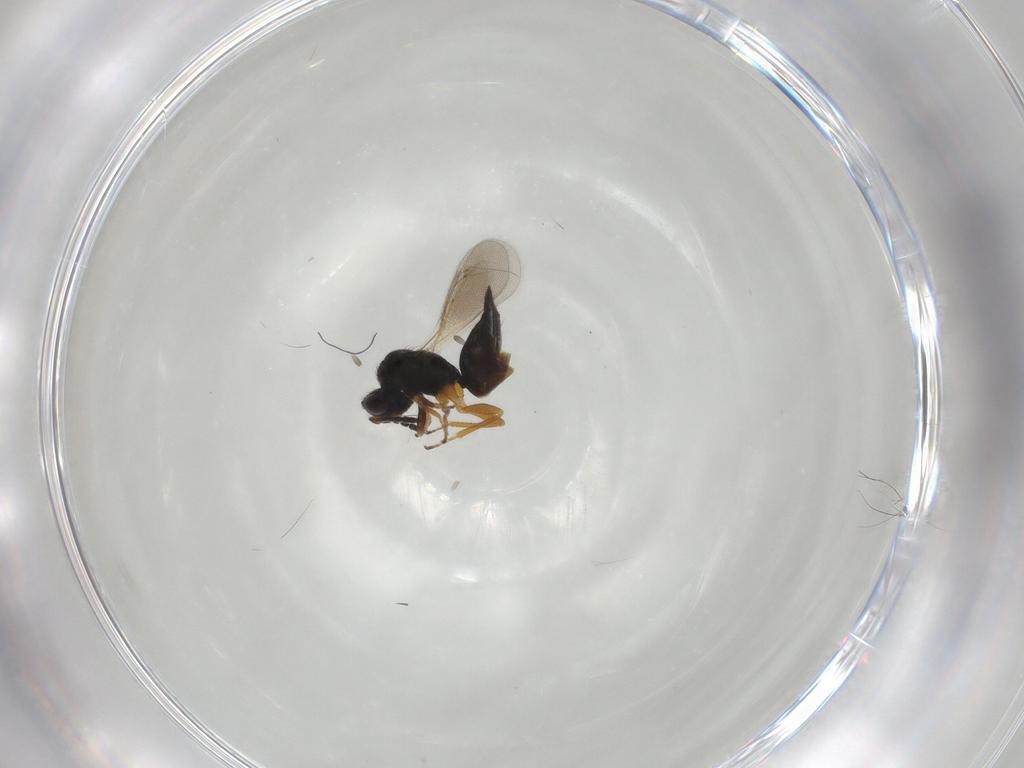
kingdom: Animalia
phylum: Arthropoda
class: Insecta
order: Hymenoptera
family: Eulophidae
